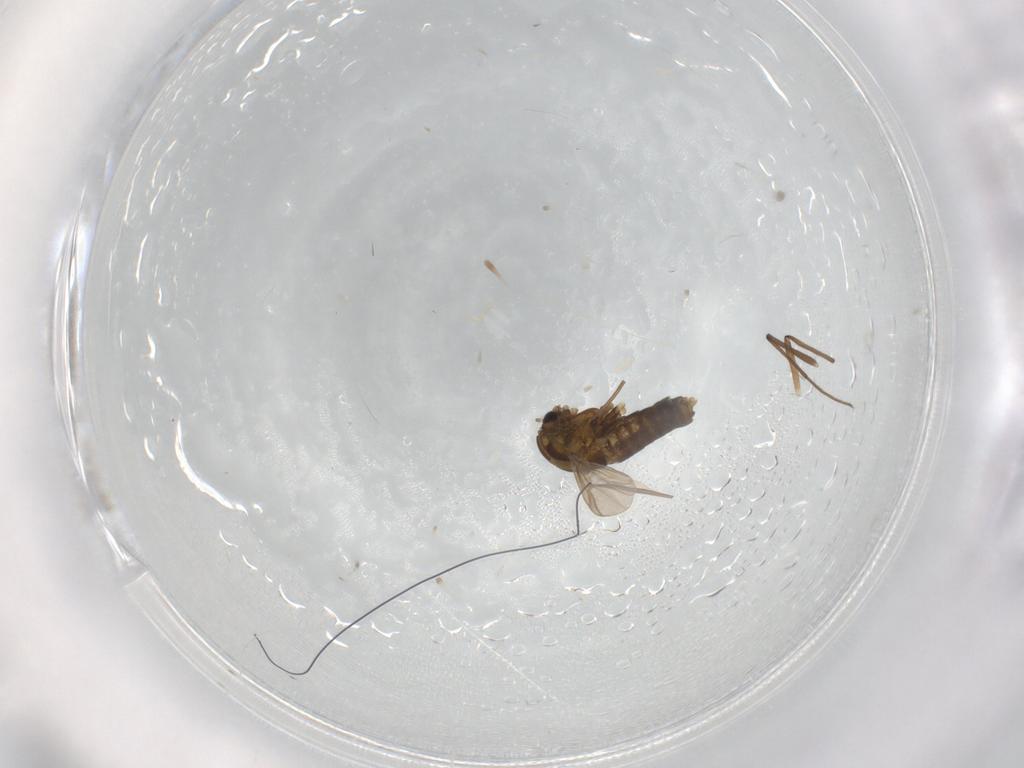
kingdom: Animalia
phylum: Arthropoda
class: Insecta
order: Diptera
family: Chironomidae
